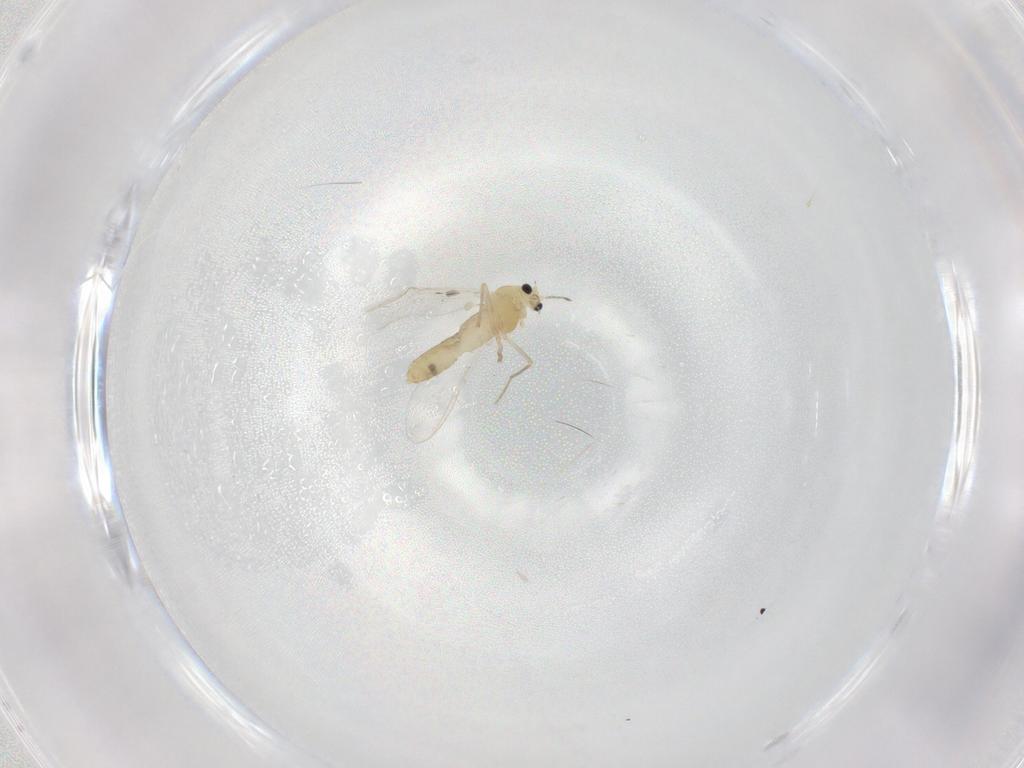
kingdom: Animalia
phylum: Arthropoda
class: Insecta
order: Diptera
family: Chironomidae
